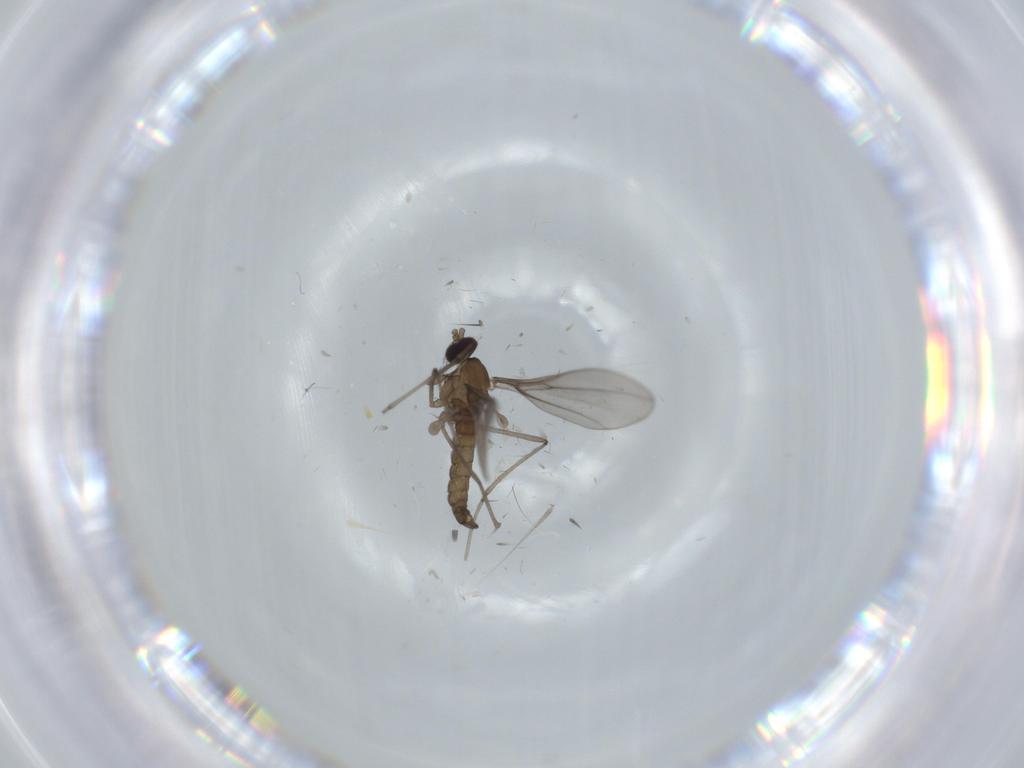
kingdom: Animalia
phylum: Arthropoda
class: Insecta
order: Diptera
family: Cecidomyiidae
